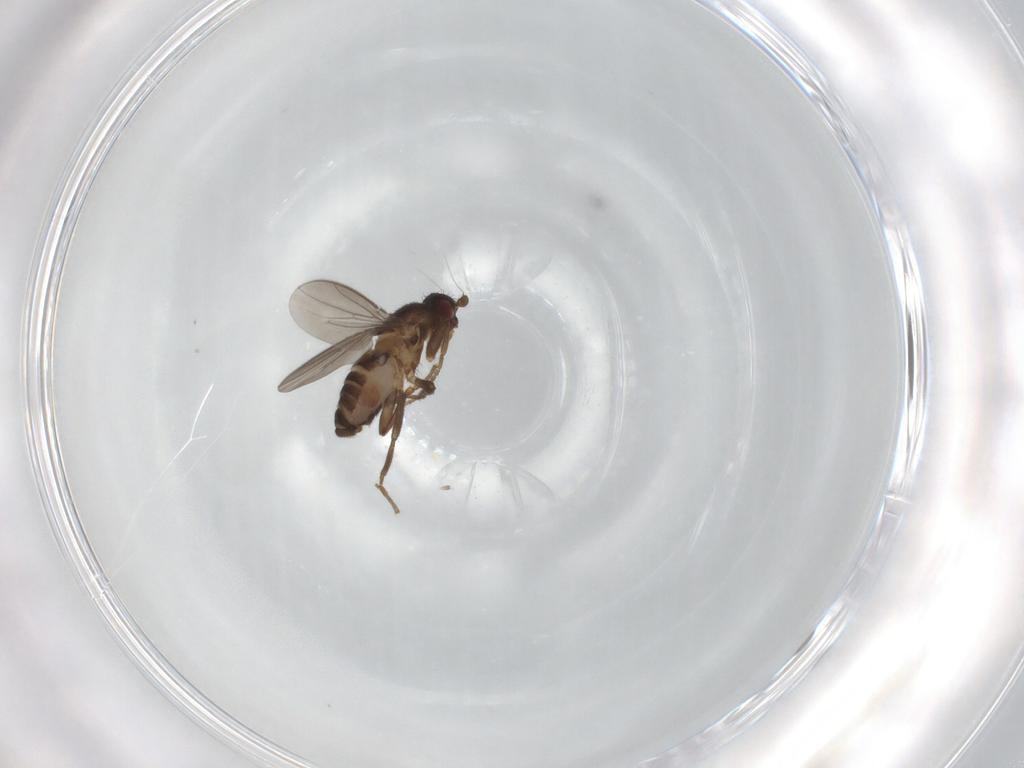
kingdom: Animalia
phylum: Arthropoda
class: Insecta
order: Diptera
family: Sphaeroceridae
